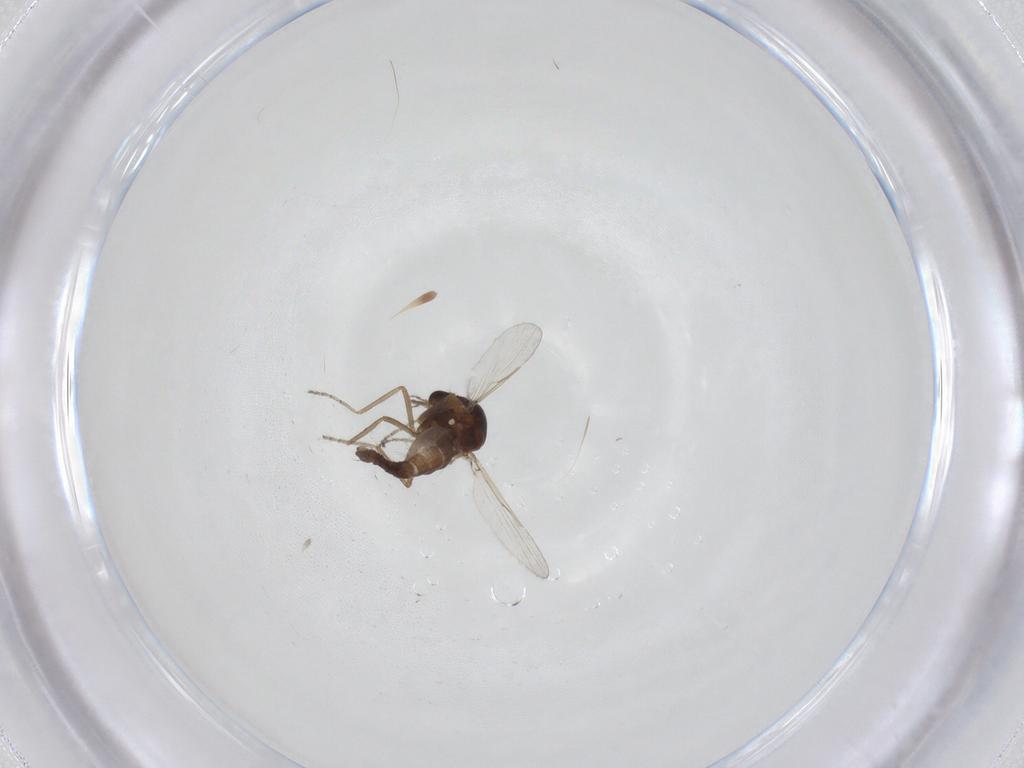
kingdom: Animalia
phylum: Arthropoda
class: Insecta
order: Diptera
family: Ceratopogonidae
